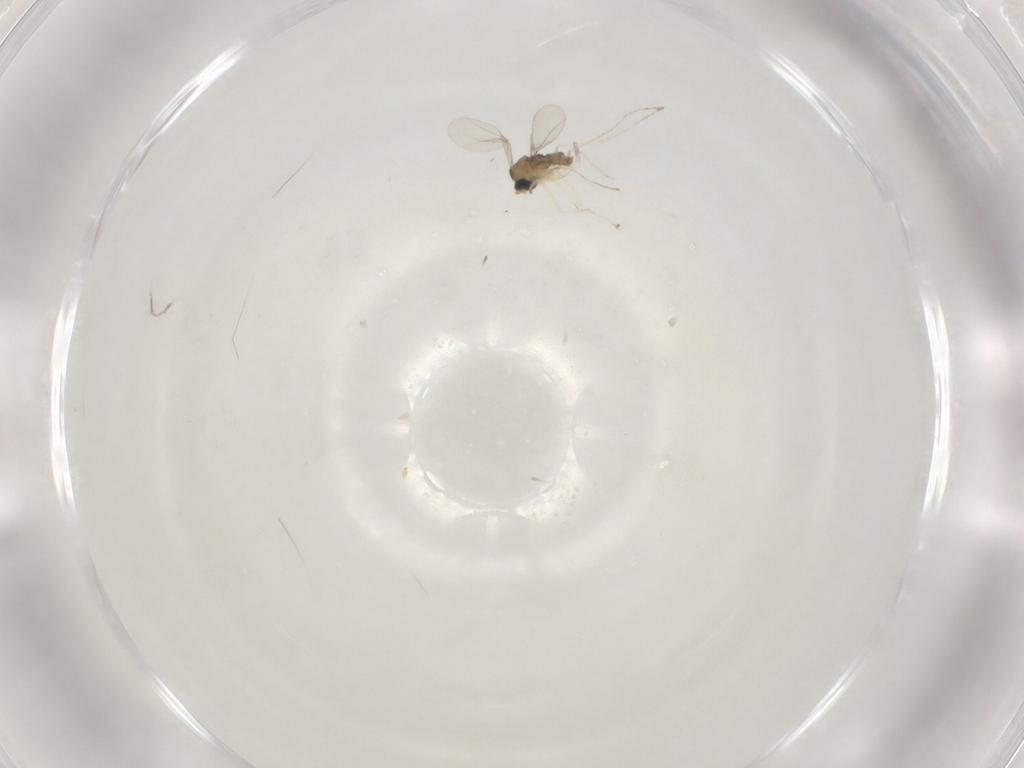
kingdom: Animalia
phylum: Arthropoda
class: Insecta
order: Diptera
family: Cecidomyiidae
